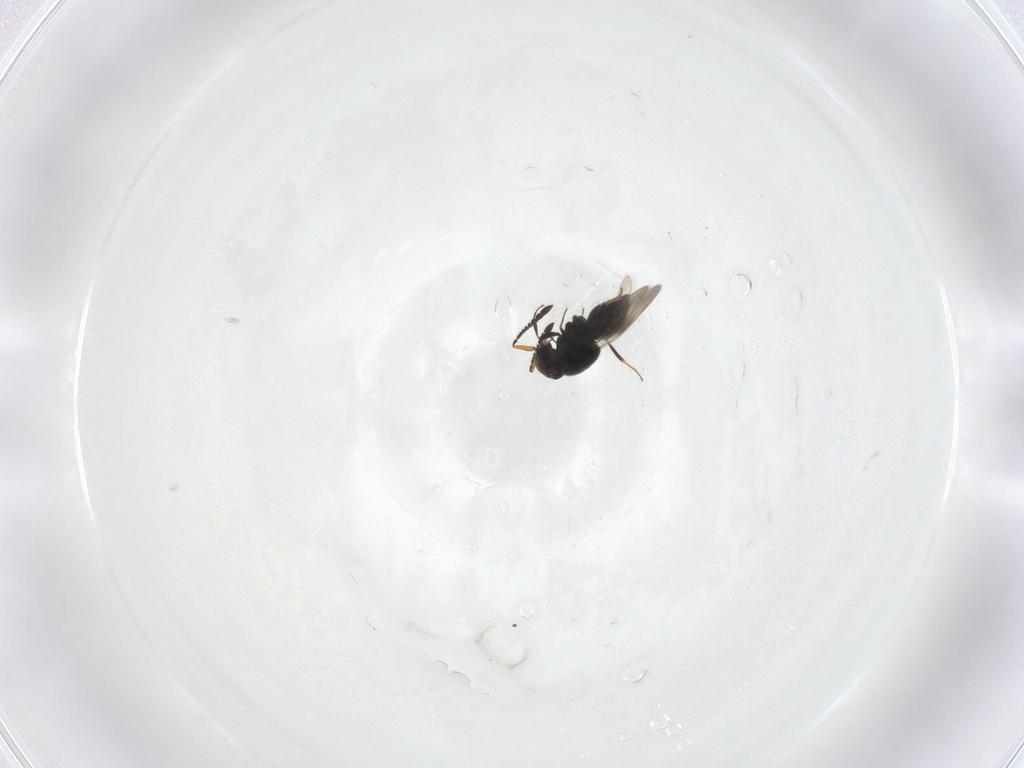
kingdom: Animalia
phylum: Arthropoda
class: Insecta
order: Hymenoptera
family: Ceraphronidae
